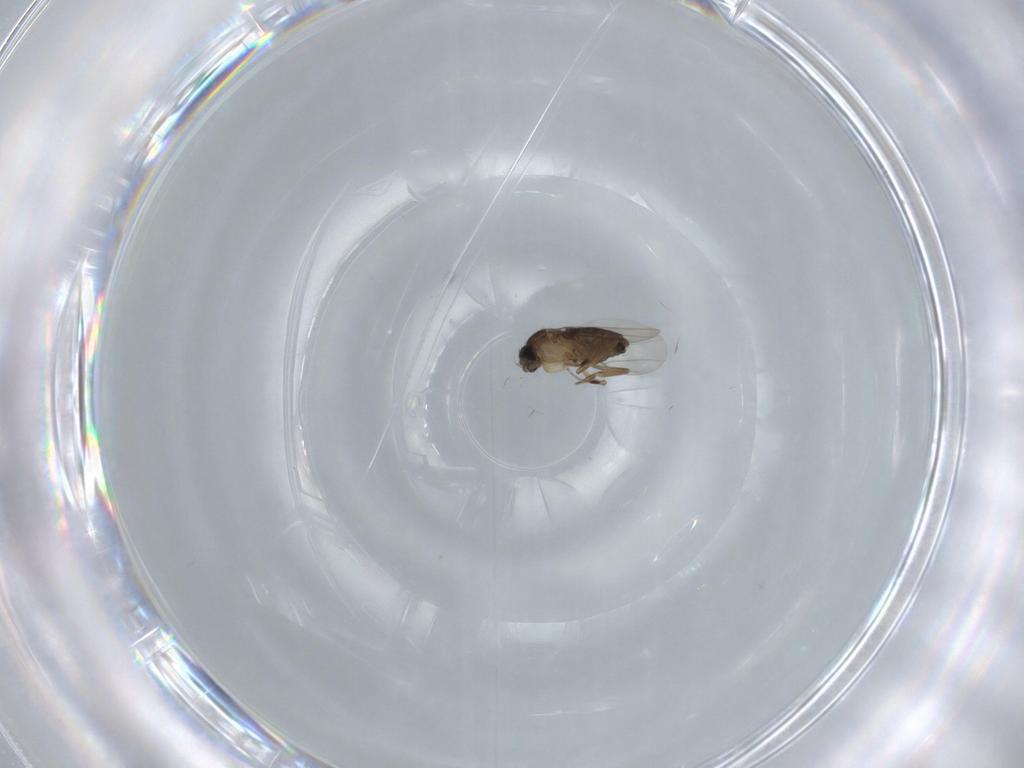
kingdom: Animalia
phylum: Arthropoda
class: Insecta
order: Diptera
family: Phoridae
